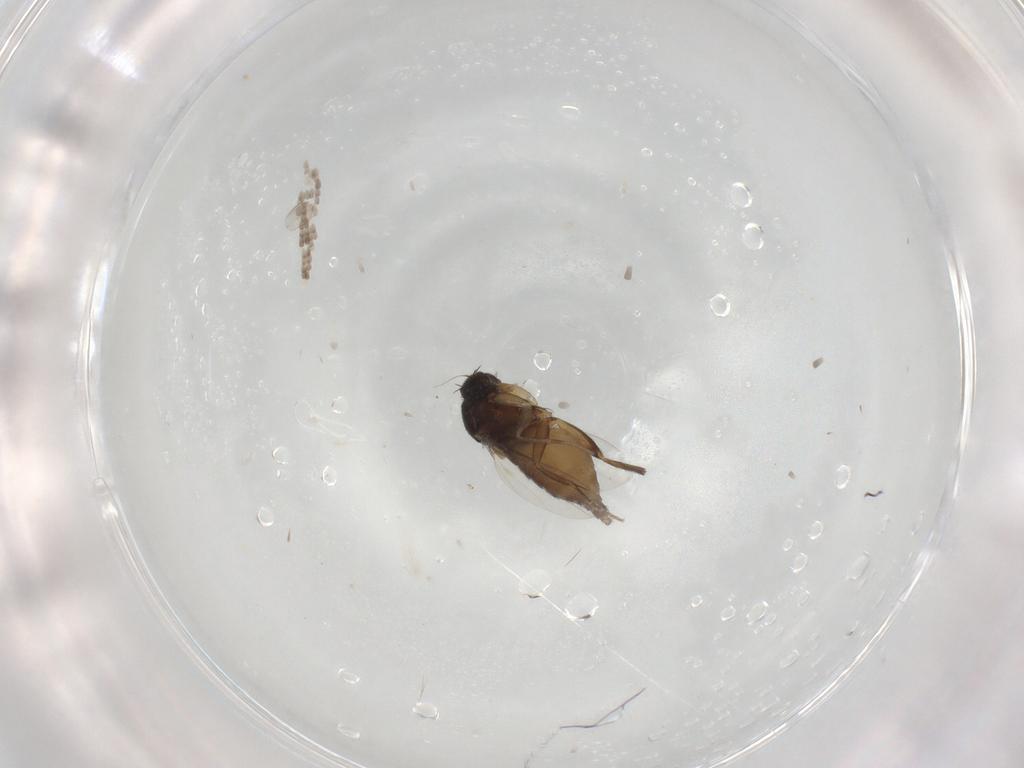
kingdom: Animalia
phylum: Arthropoda
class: Insecta
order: Diptera
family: Phoridae
